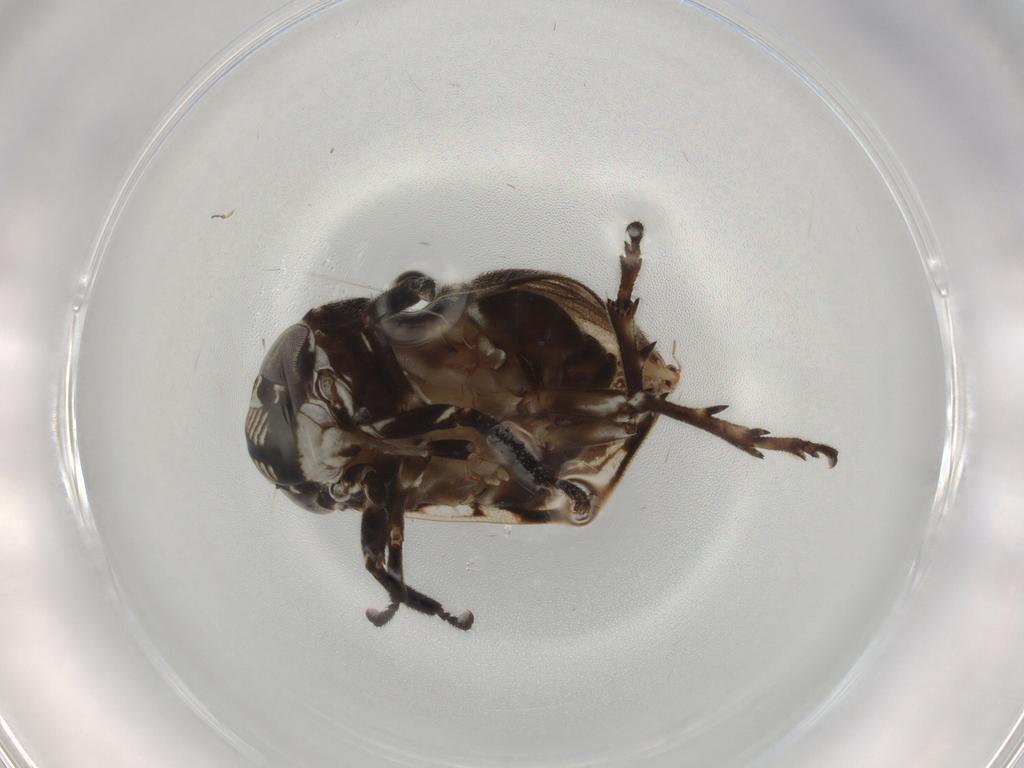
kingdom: Animalia
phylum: Arthropoda
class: Insecta
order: Hemiptera
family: Clastopteridae
